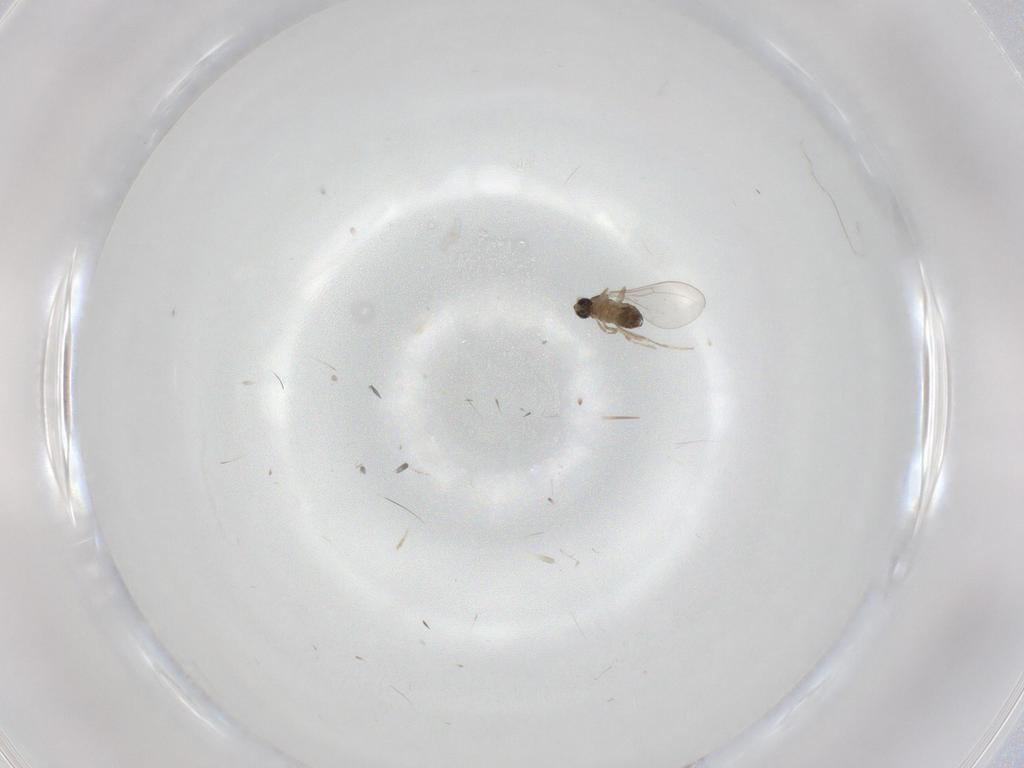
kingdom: Animalia
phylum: Arthropoda
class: Insecta
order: Diptera
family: Cecidomyiidae
